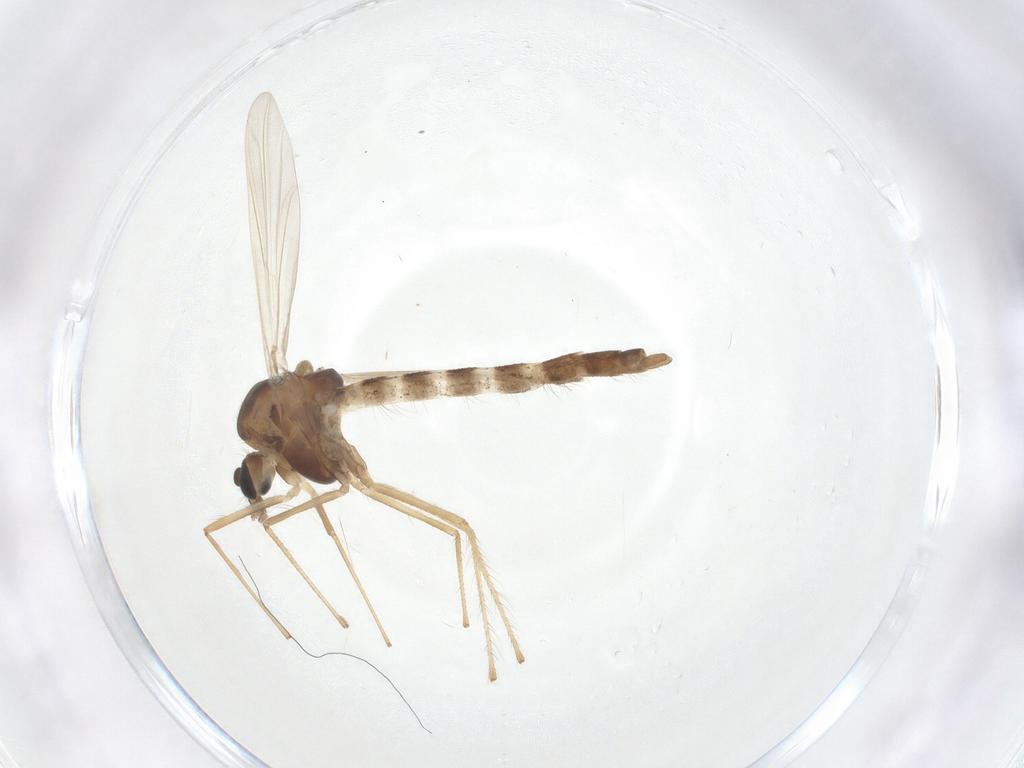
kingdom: Animalia
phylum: Arthropoda
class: Insecta
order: Diptera
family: Chironomidae
